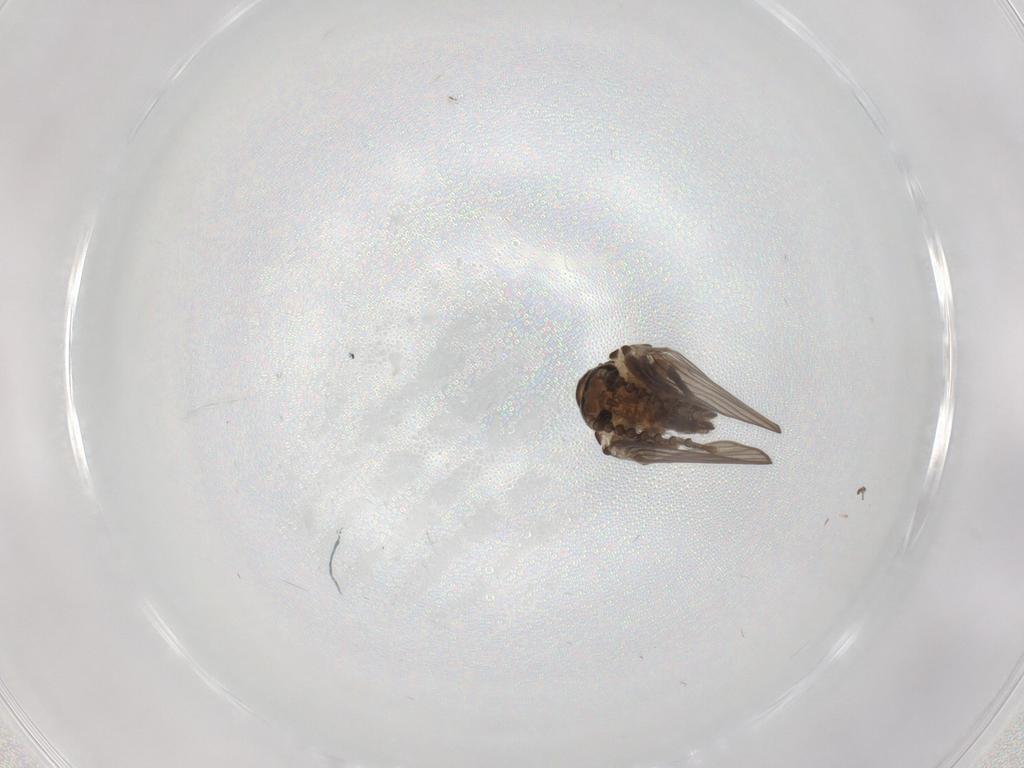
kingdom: Animalia
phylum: Arthropoda
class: Insecta
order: Diptera
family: Psychodidae
